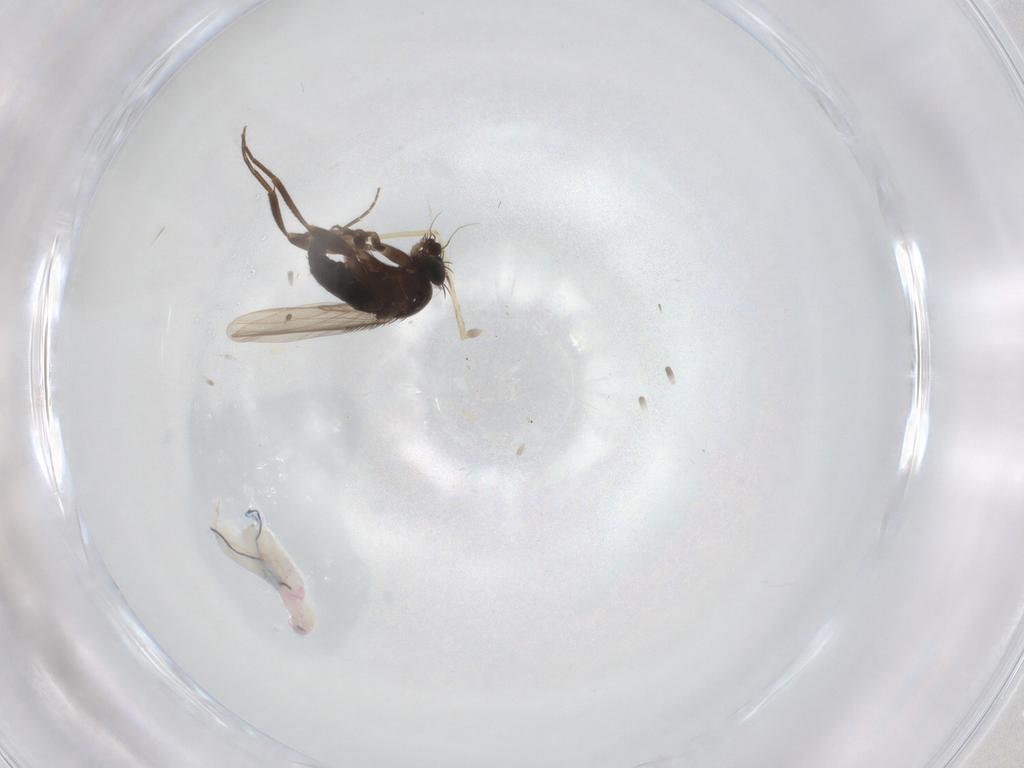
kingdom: Animalia
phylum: Arthropoda
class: Insecta
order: Diptera
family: Phoridae
